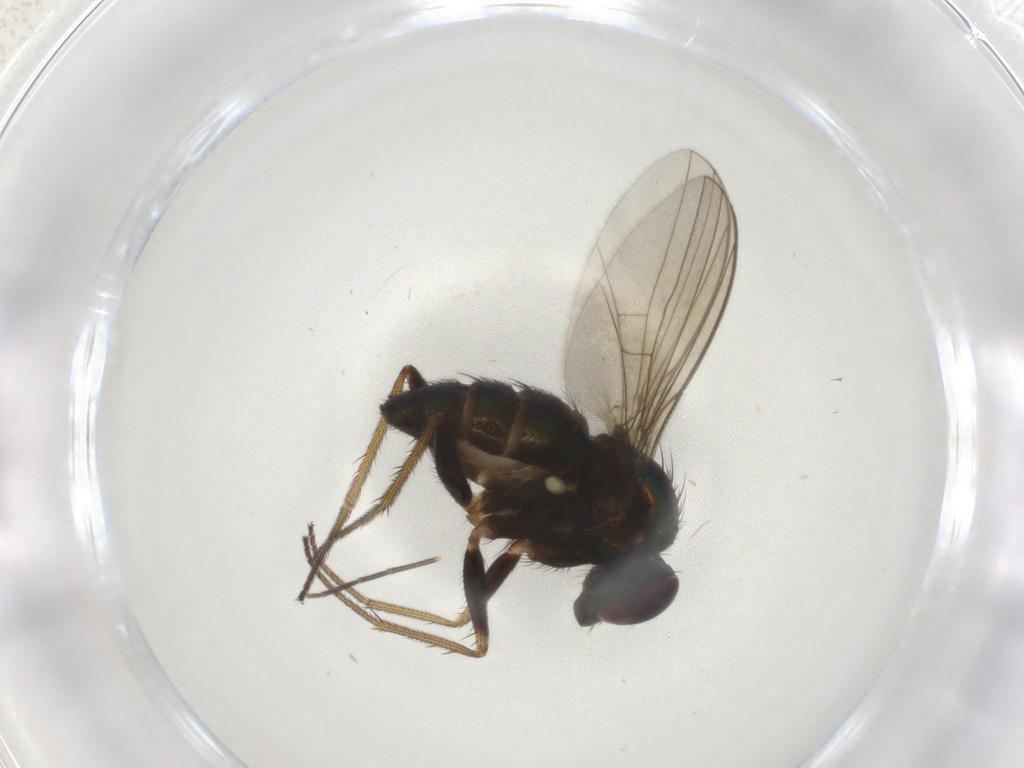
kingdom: Animalia
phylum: Arthropoda
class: Insecta
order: Diptera
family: Dolichopodidae
